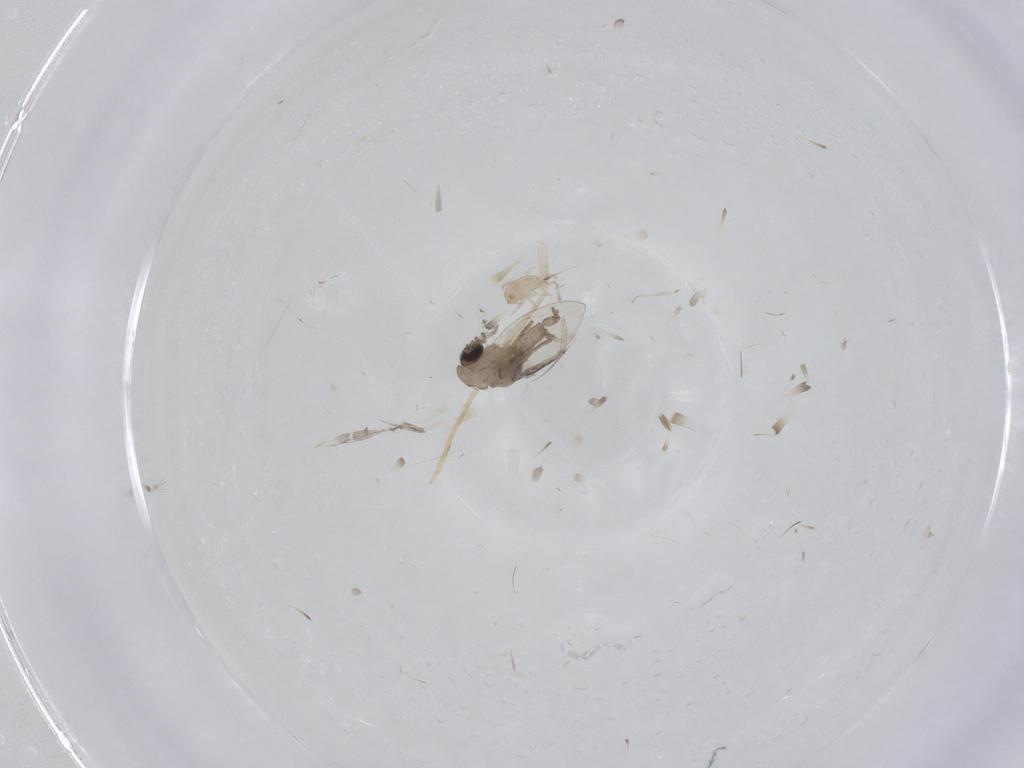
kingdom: Animalia
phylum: Arthropoda
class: Insecta
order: Diptera
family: Psychodidae
